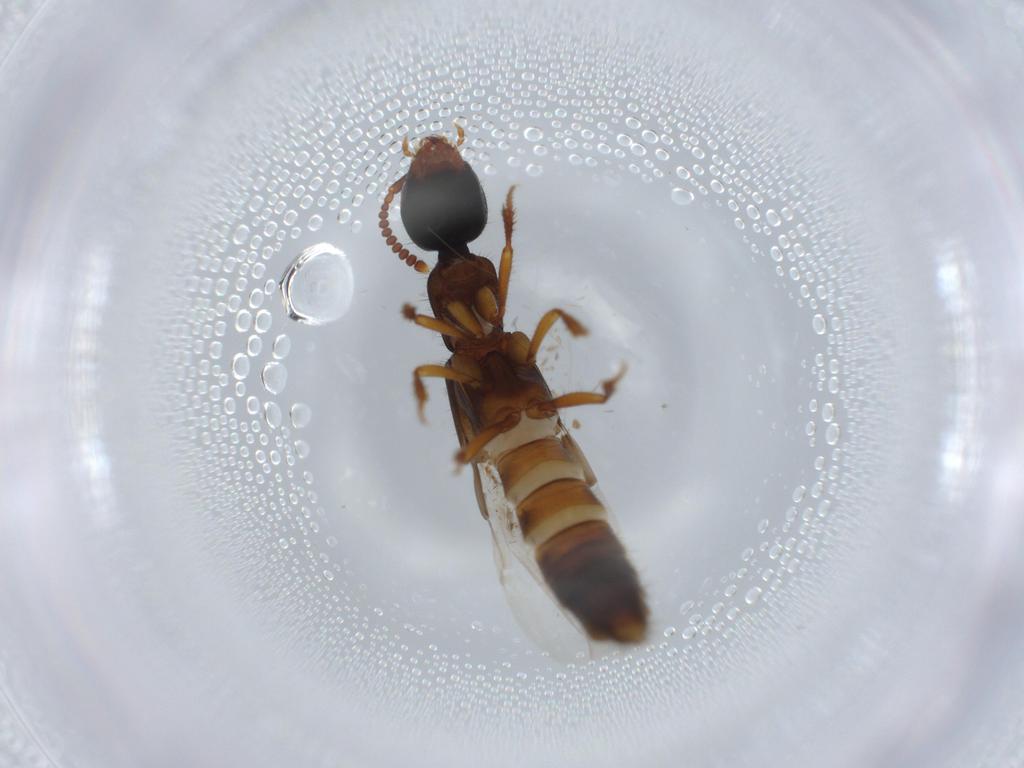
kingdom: Animalia
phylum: Arthropoda
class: Insecta
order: Coleoptera
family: Staphylinidae
